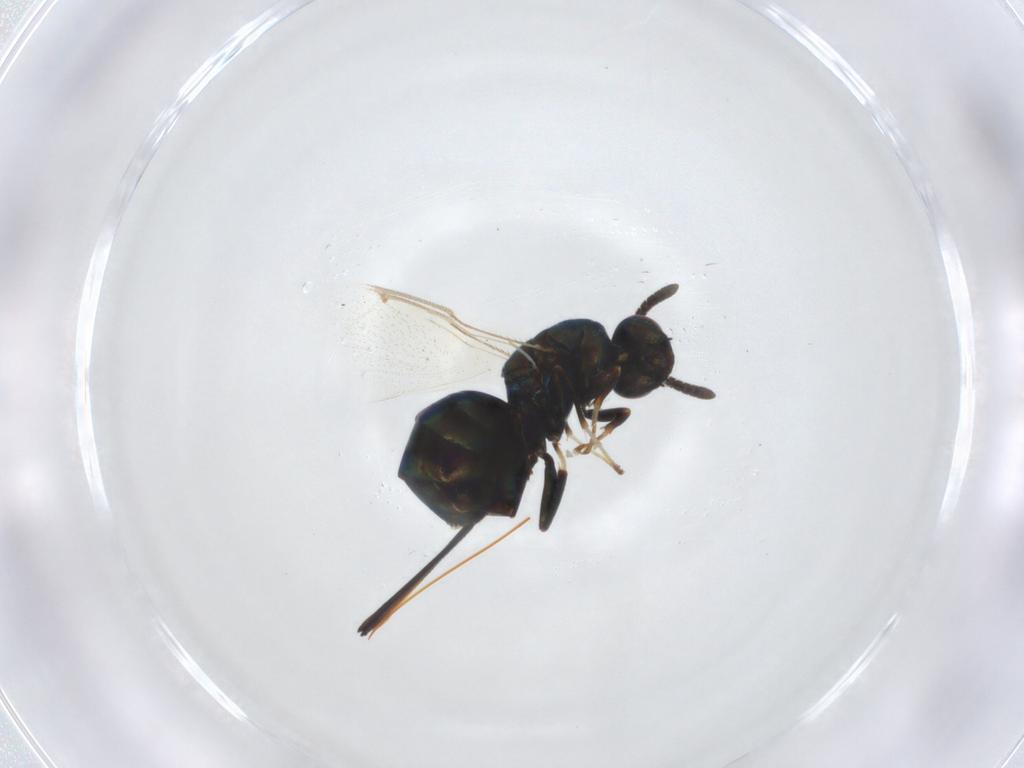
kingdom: Animalia
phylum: Arthropoda
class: Insecta
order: Hymenoptera
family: Torymidae
